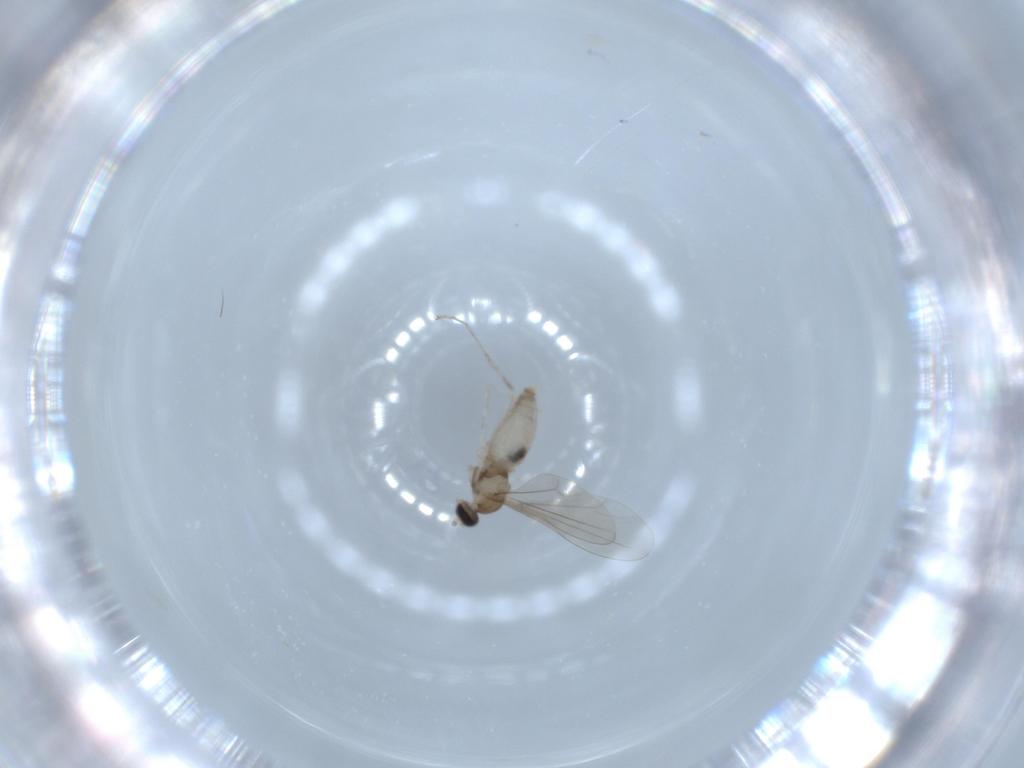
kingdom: Animalia
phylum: Arthropoda
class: Insecta
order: Diptera
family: Cecidomyiidae
